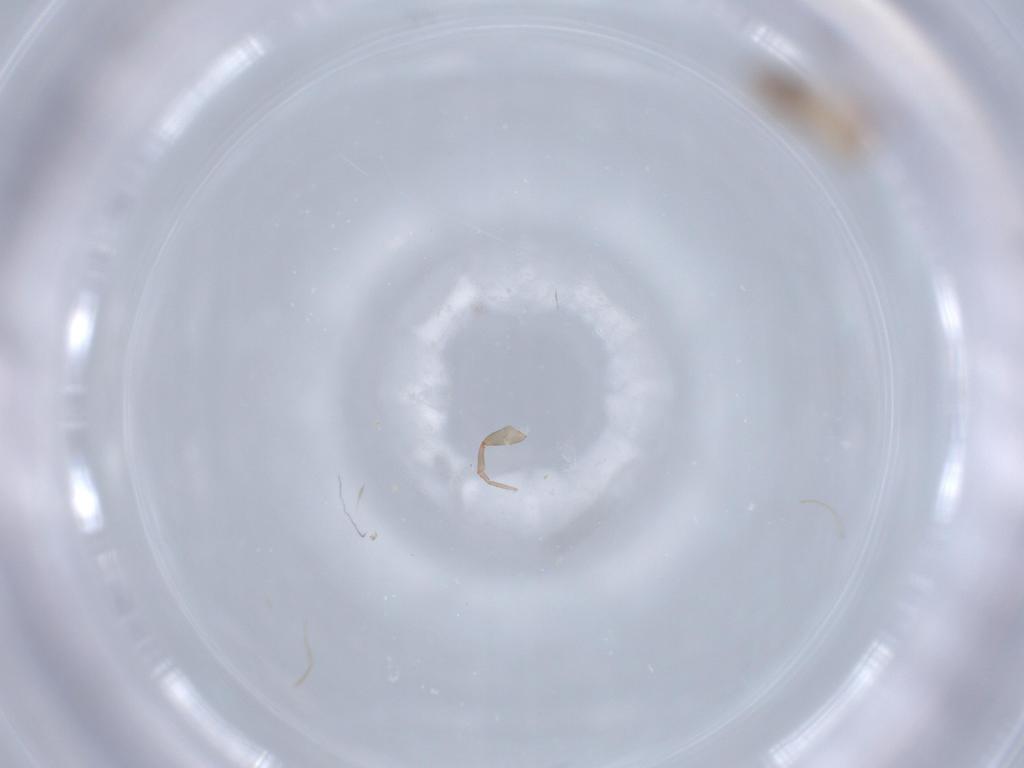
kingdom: Animalia
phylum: Arthropoda
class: Arachnida
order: Pseudoscorpiones
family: Chthoniidae
